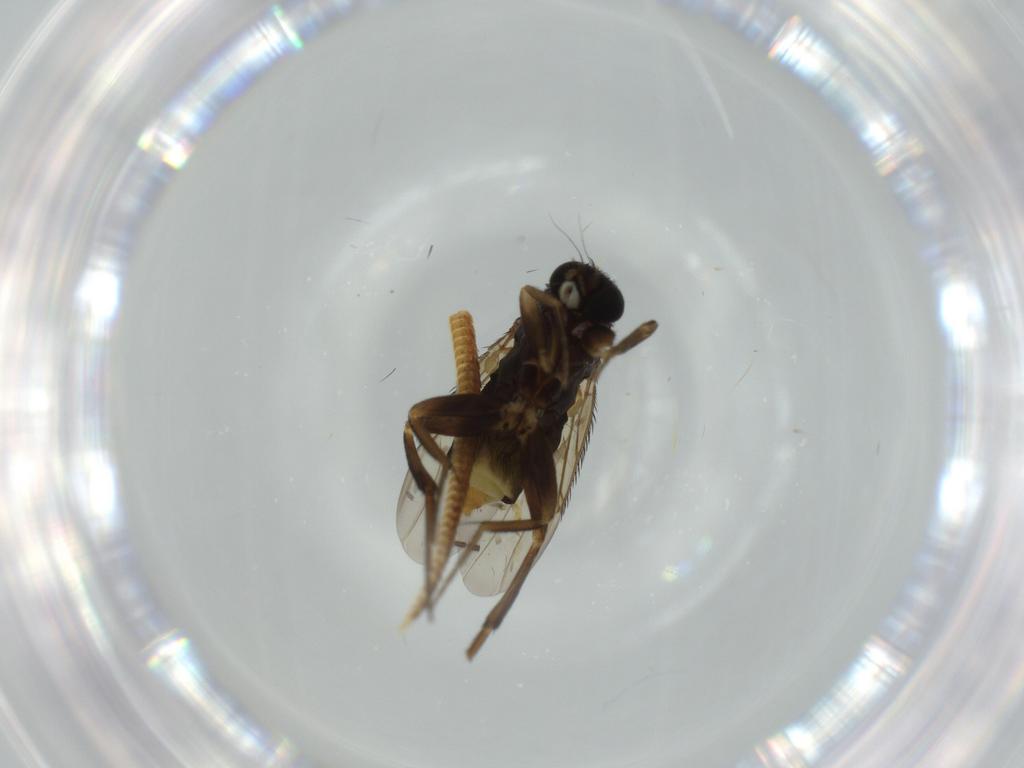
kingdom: Animalia
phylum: Arthropoda
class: Insecta
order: Diptera
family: Phoridae
